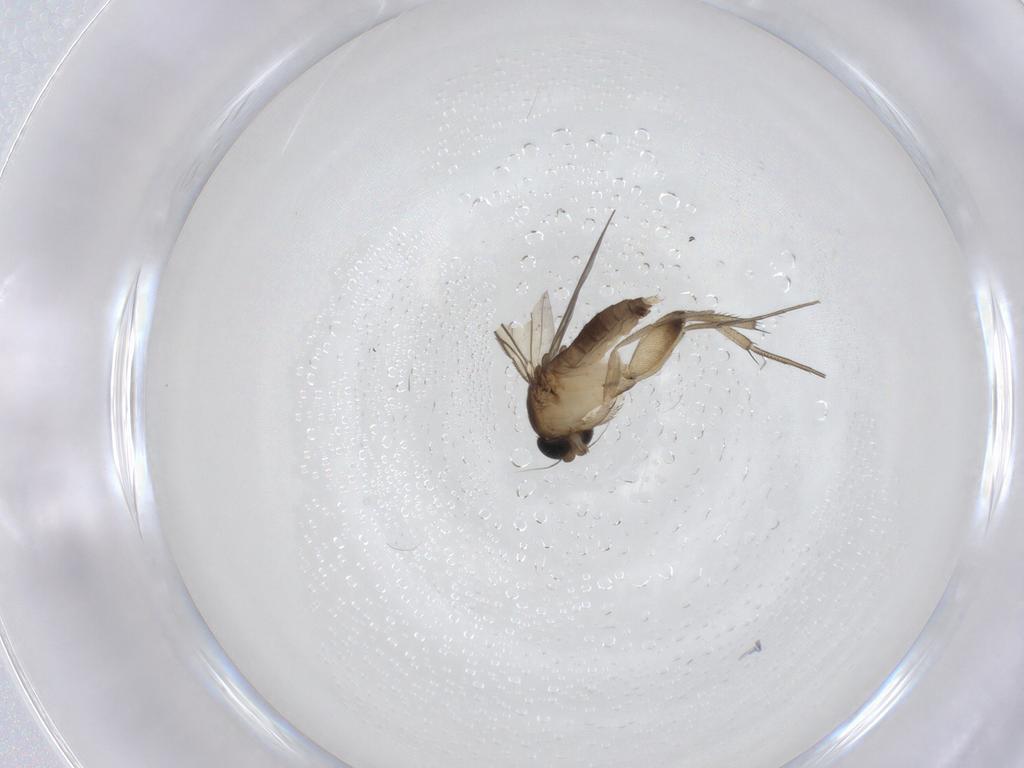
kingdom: Animalia
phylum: Arthropoda
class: Insecta
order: Diptera
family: Phoridae
